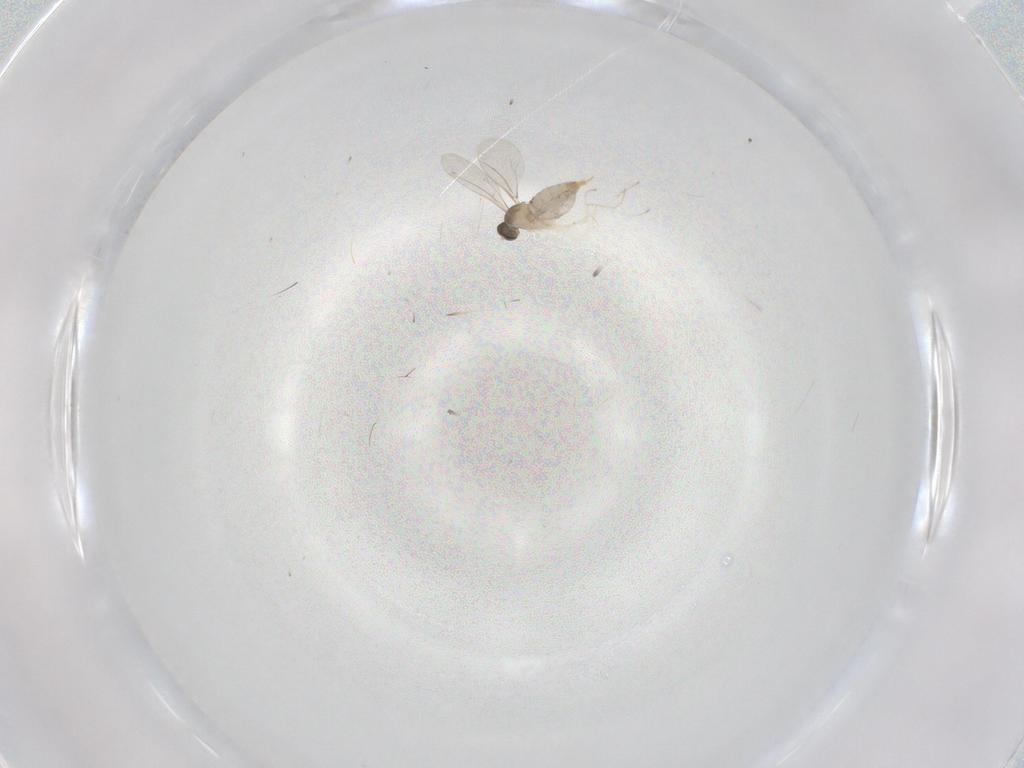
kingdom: Animalia
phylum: Arthropoda
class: Insecta
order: Diptera
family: Cecidomyiidae
